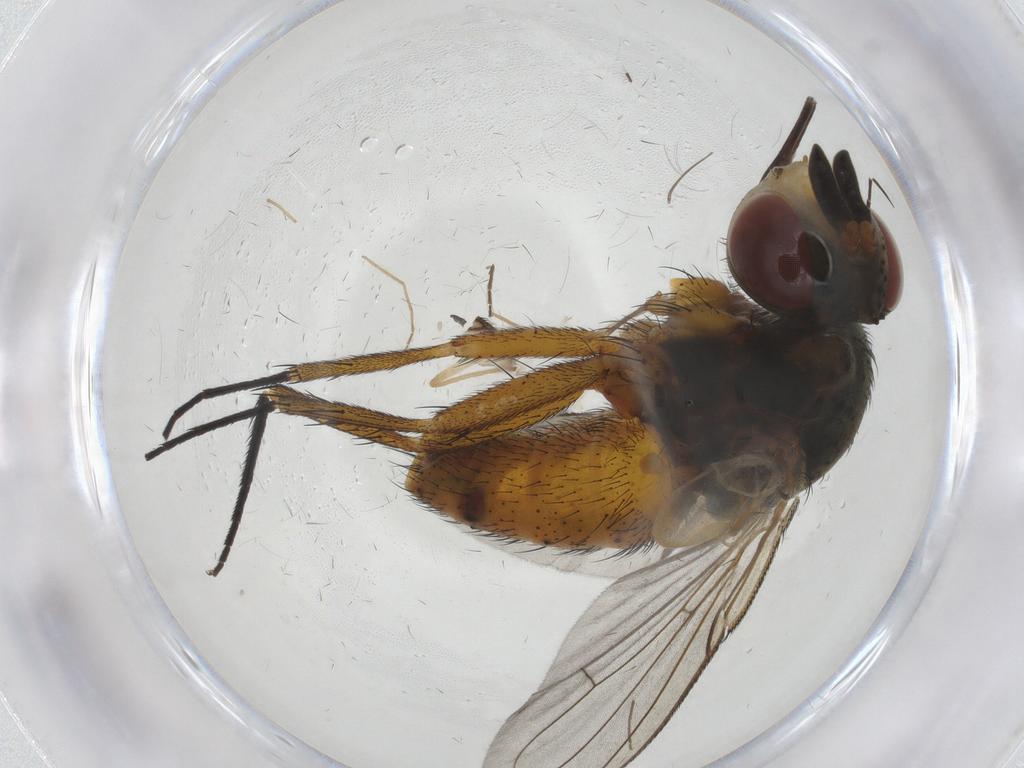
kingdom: Animalia
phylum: Arthropoda
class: Insecta
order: Diptera
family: Tachinidae
